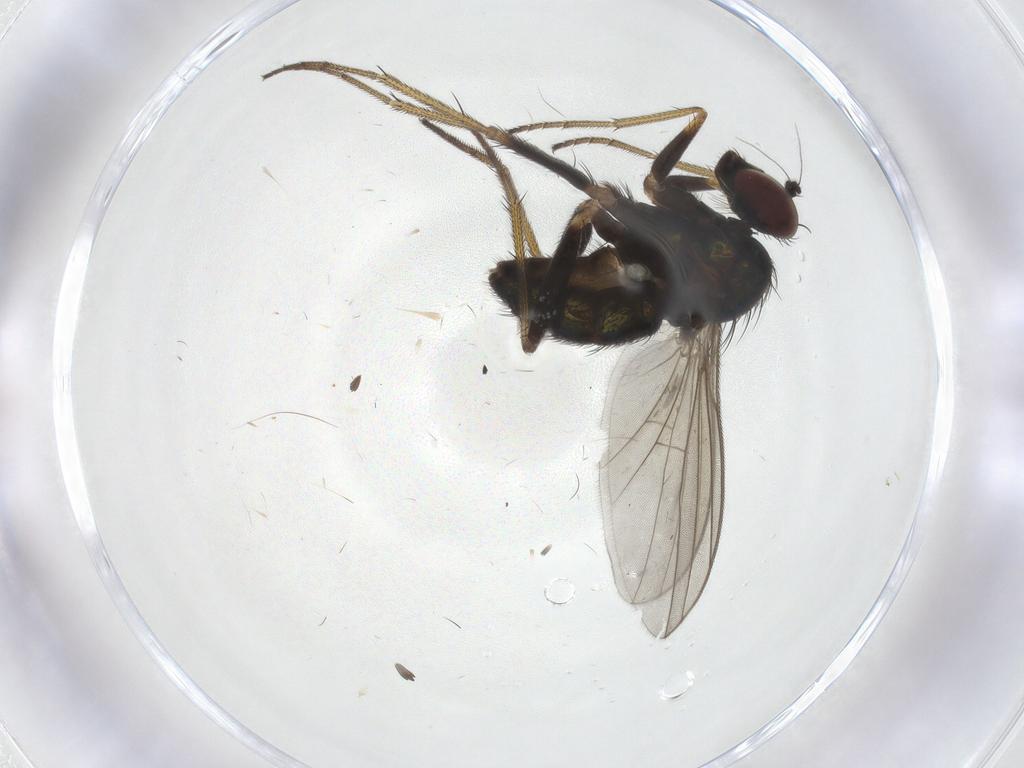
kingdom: Animalia
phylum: Arthropoda
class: Insecta
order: Diptera
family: Dolichopodidae
